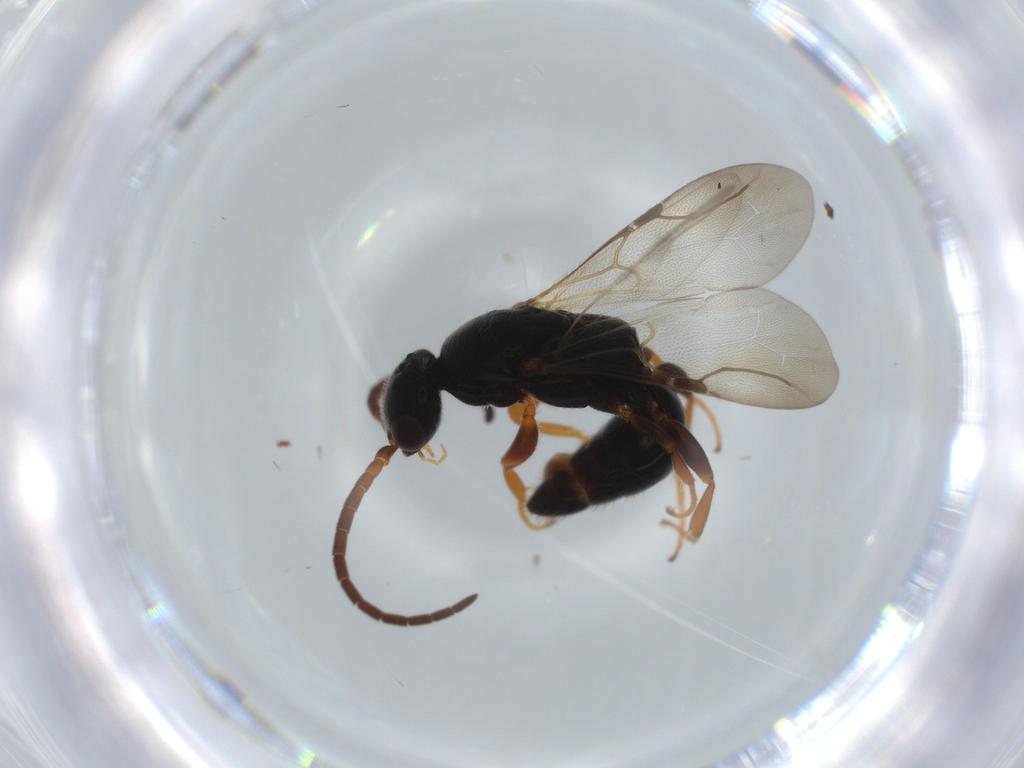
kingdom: Animalia
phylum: Arthropoda
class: Insecta
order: Hymenoptera
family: Bethylidae
